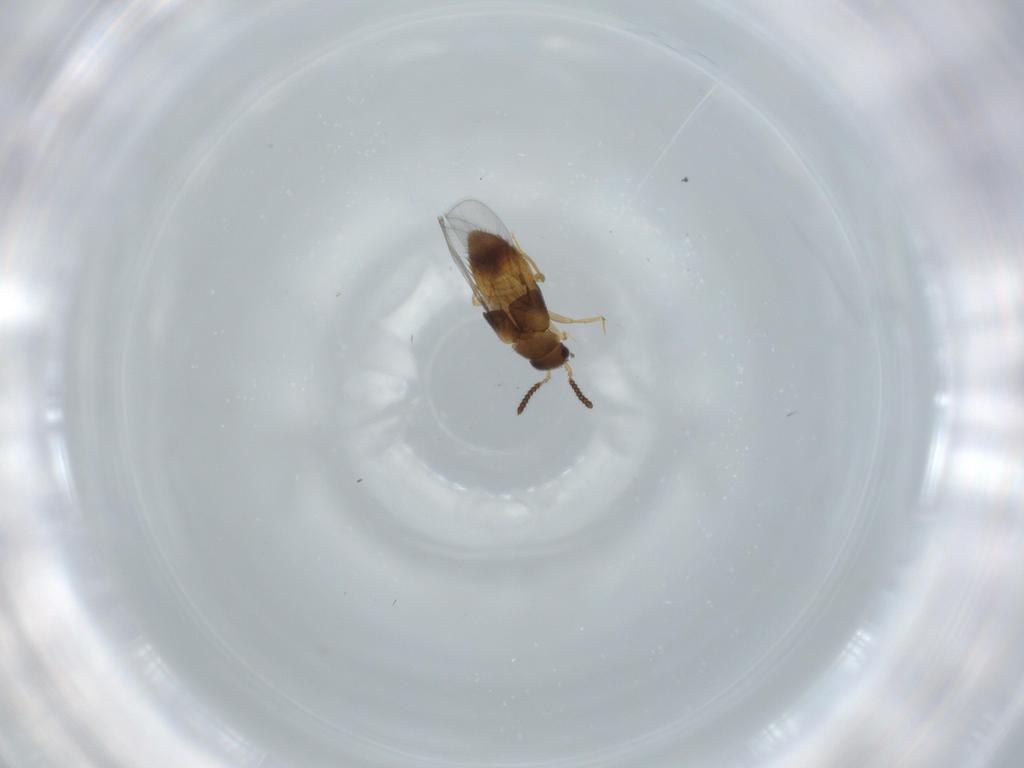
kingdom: Animalia
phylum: Arthropoda
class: Insecta
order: Coleoptera
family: Staphylinidae
